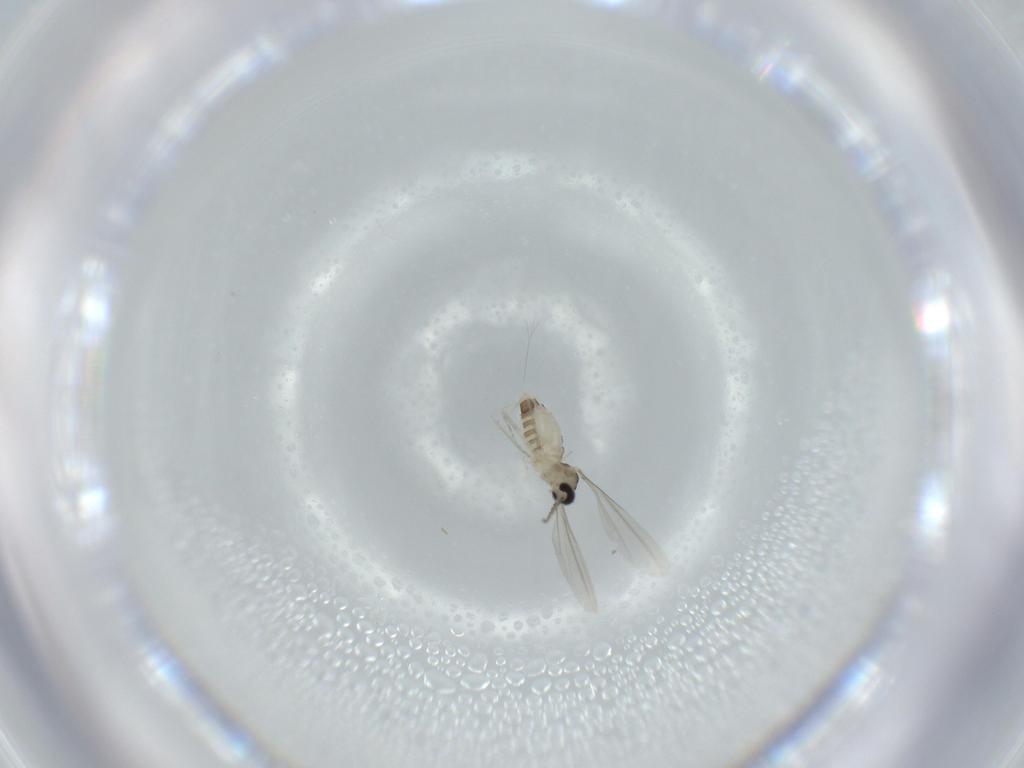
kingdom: Animalia
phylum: Arthropoda
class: Insecta
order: Diptera
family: Cecidomyiidae
